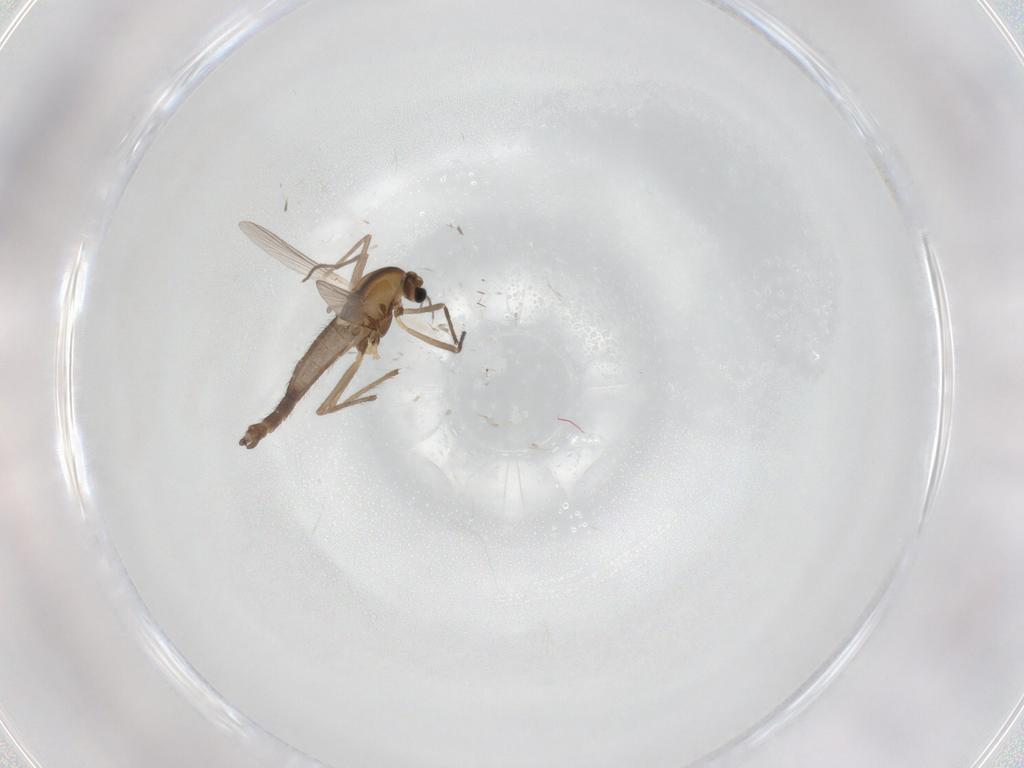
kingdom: Animalia
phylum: Arthropoda
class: Insecta
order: Diptera
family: Chironomidae
